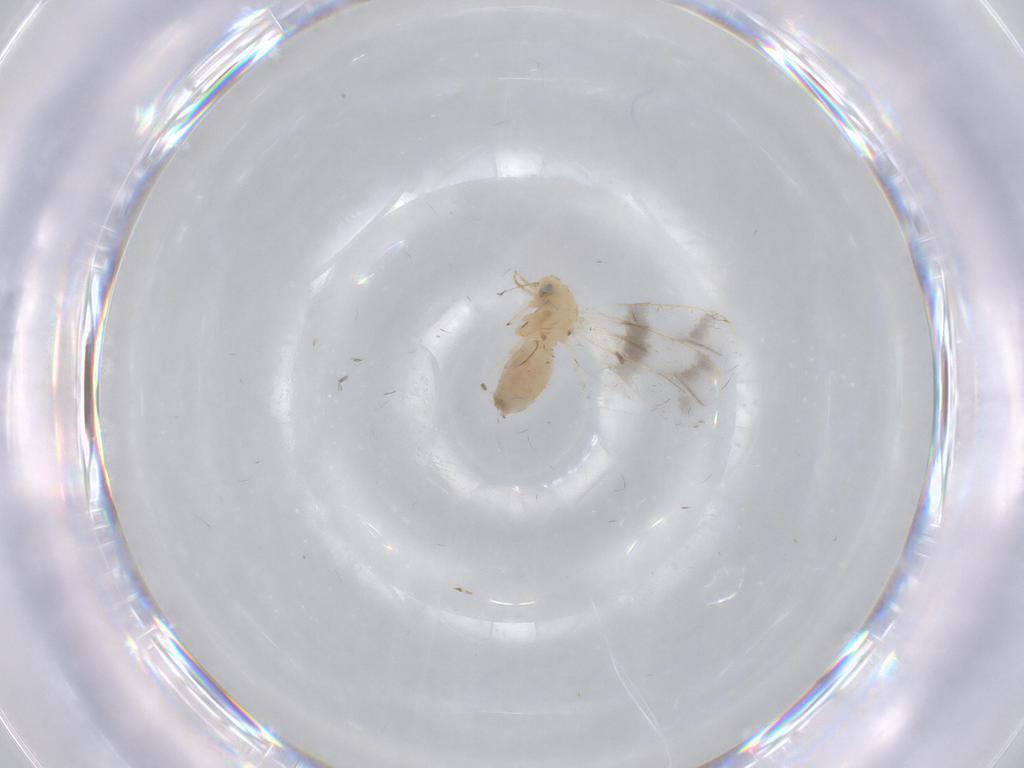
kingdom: Animalia
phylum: Arthropoda
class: Insecta
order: Hemiptera
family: Aleyrodidae
